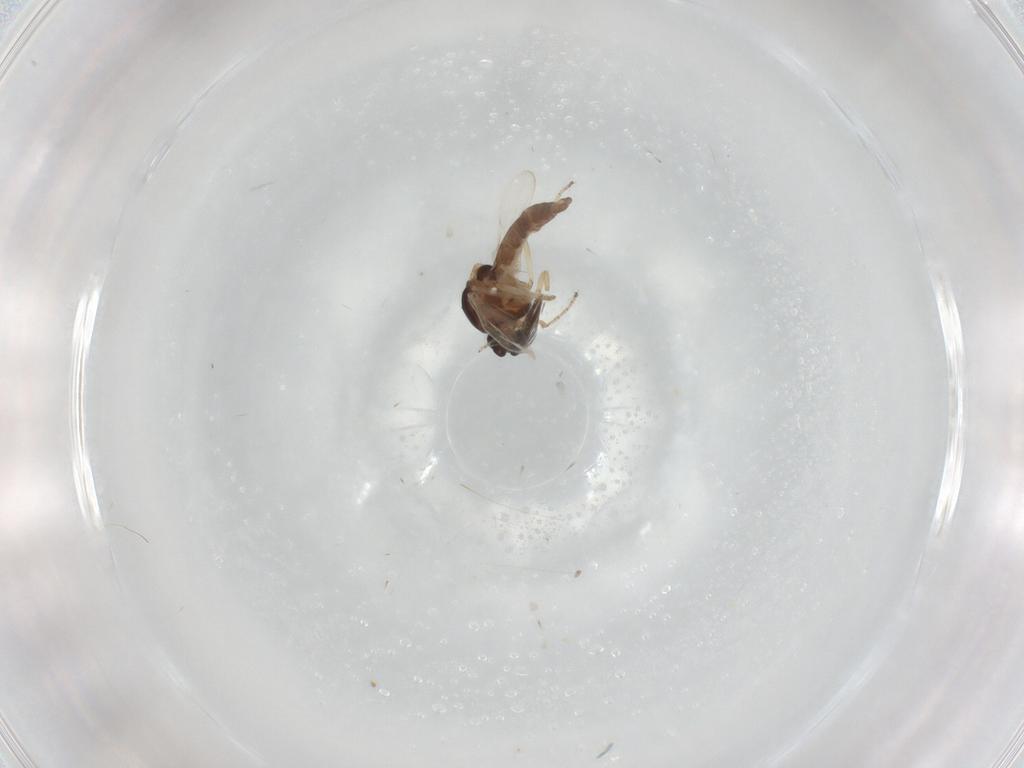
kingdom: Animalia
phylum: Arthropoda
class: Insecta
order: Diptera
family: Ceratopogonidae
